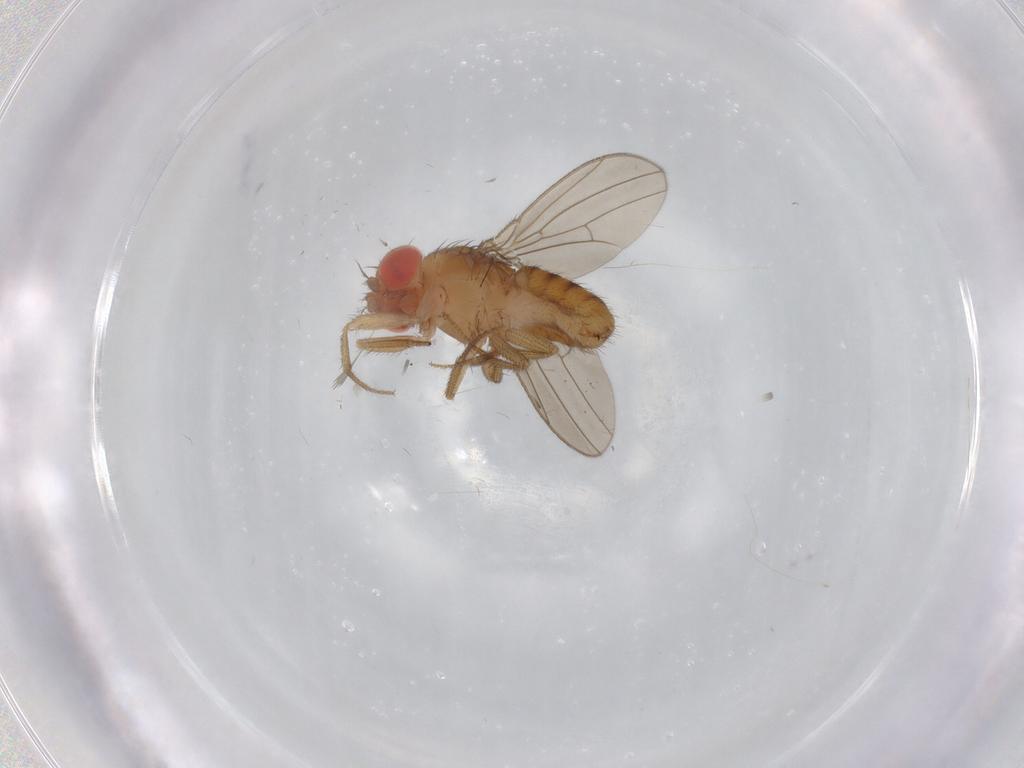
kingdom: Animalia
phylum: Arthropoda
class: Insecta
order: Diptera
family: Drosophilidae
